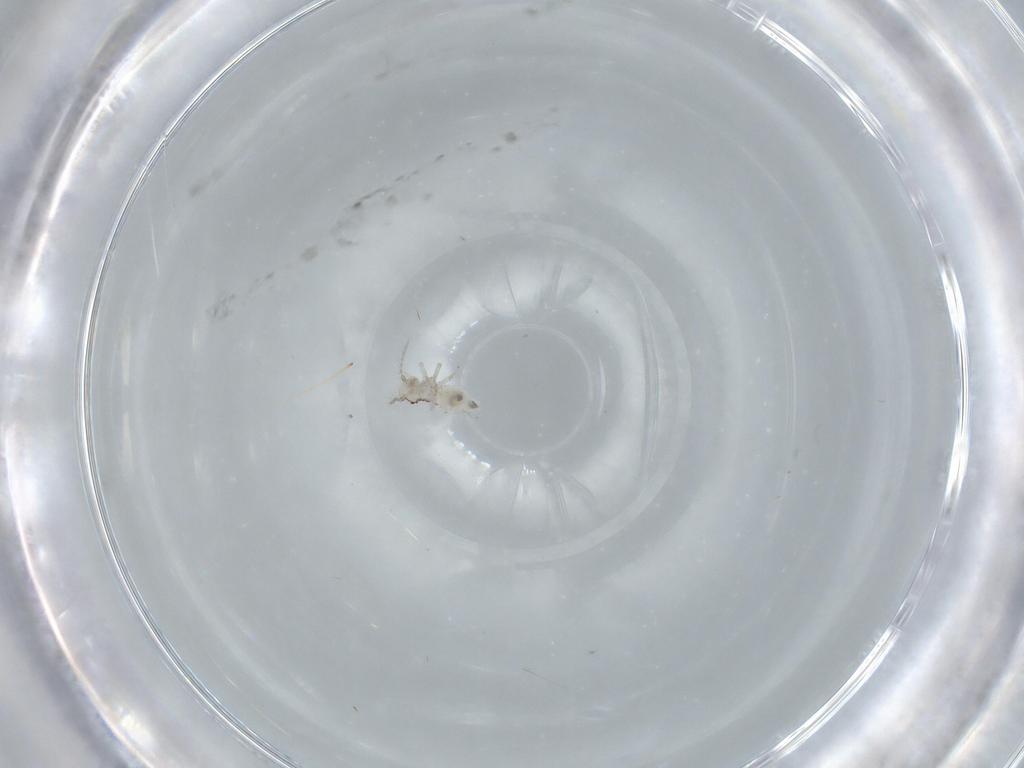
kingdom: Animalia
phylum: Arthropoda
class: Insecta
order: Psocodea
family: Pseudocaeciliidae
